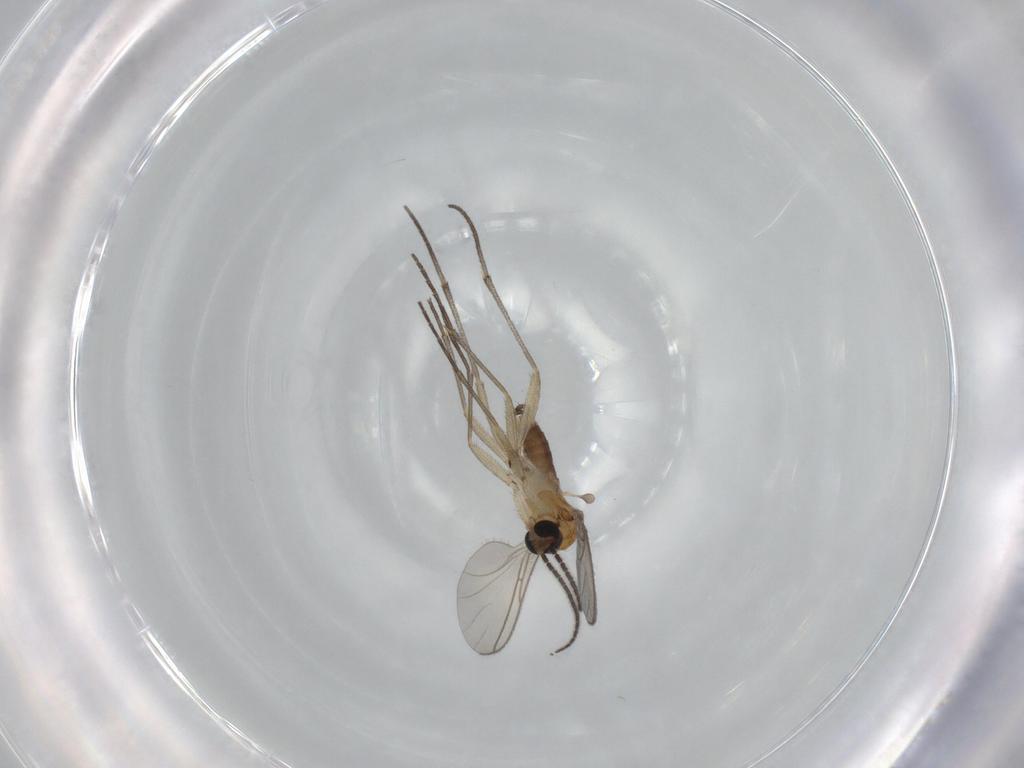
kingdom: Animalia
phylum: Arthropoda
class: Insecta
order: Diptera
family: Sciaridae
